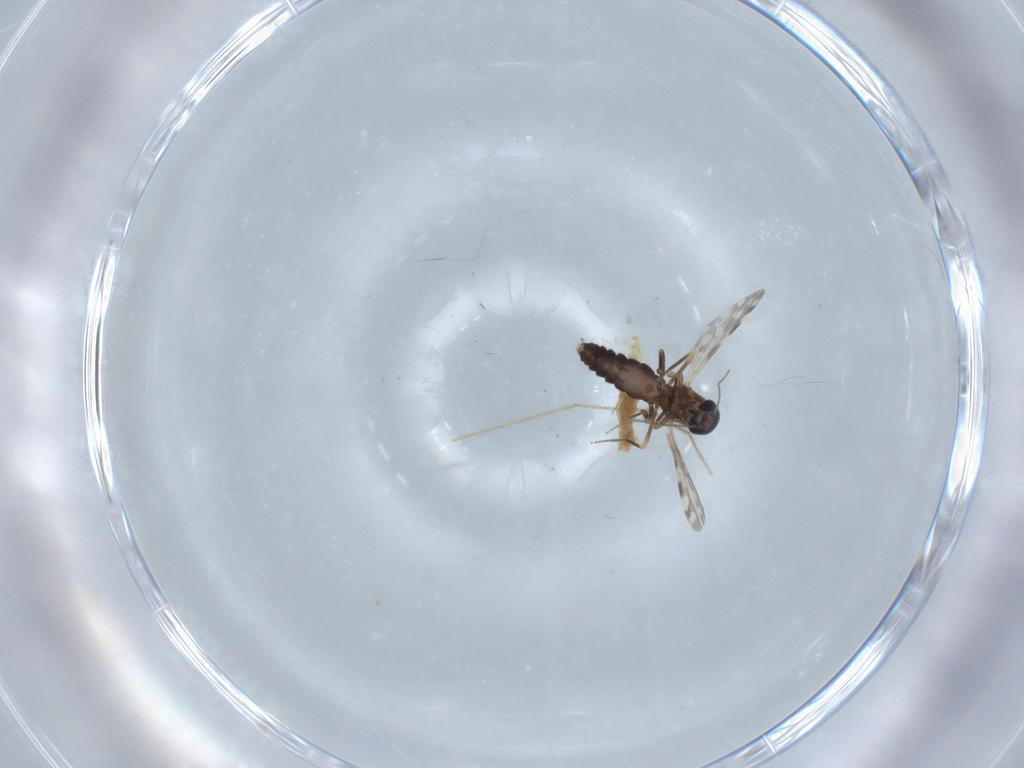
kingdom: Animalia
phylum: Arthropoda
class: Insecta
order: Diptera
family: Ceratopogonidae
